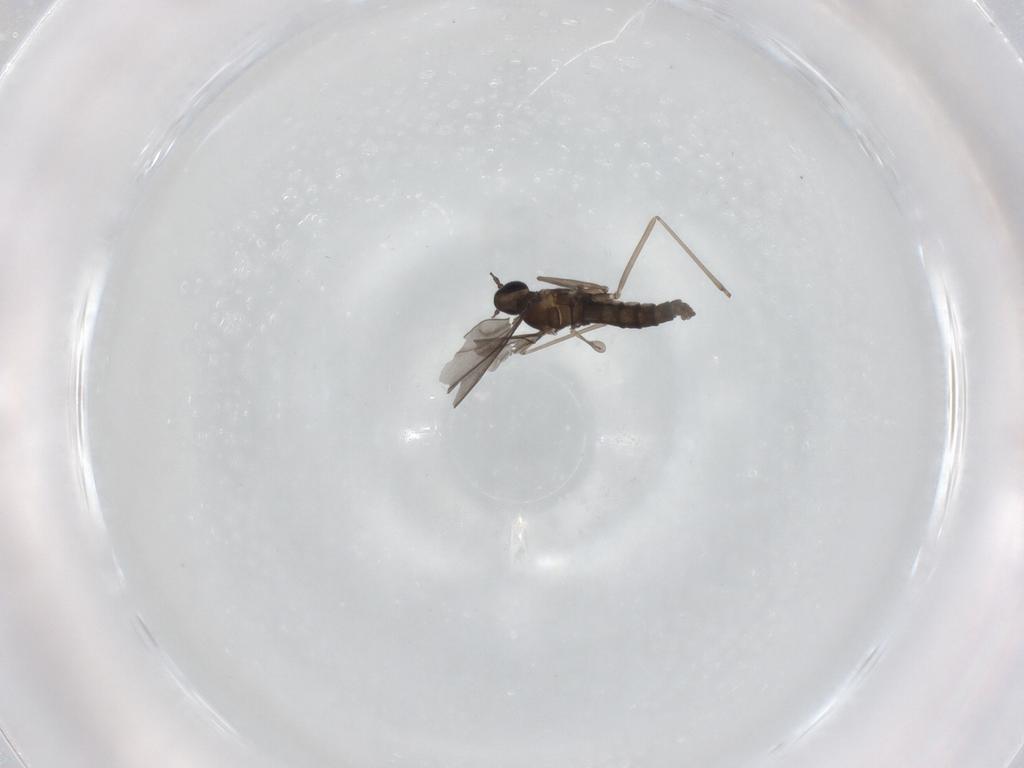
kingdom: Animalia
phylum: Arthropoda
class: Insecta
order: Diptera
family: Cecidomyiidae
